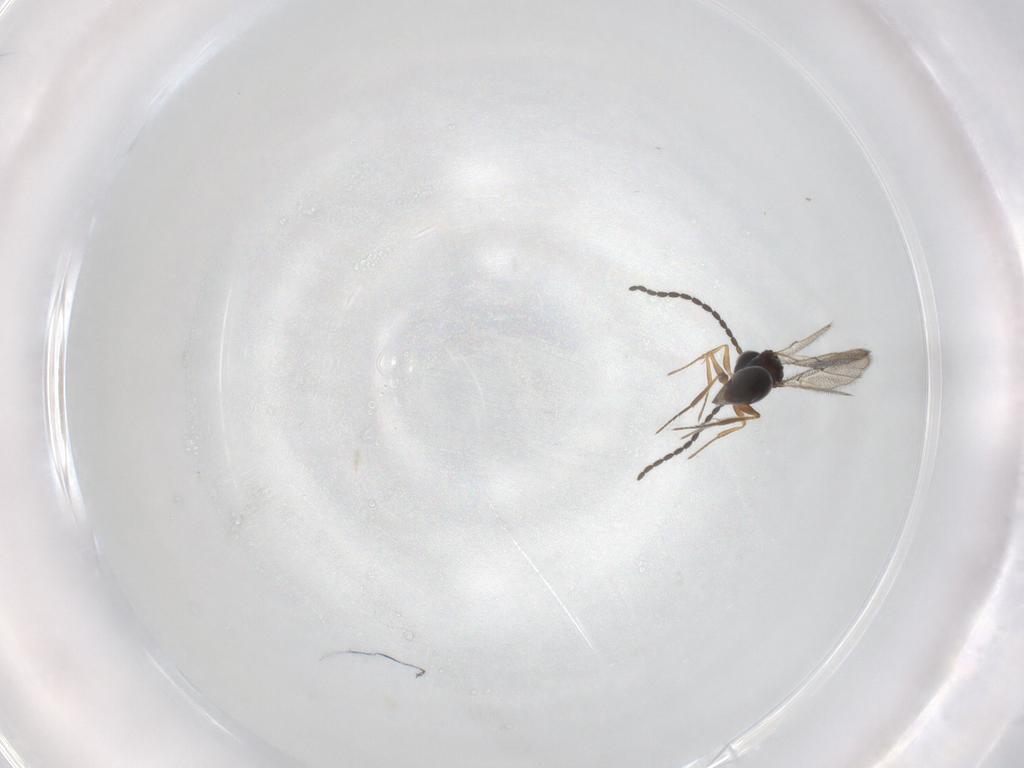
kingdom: Animalia
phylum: Arthropoda
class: Insecta
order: Hymenoptera
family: Figitidae
